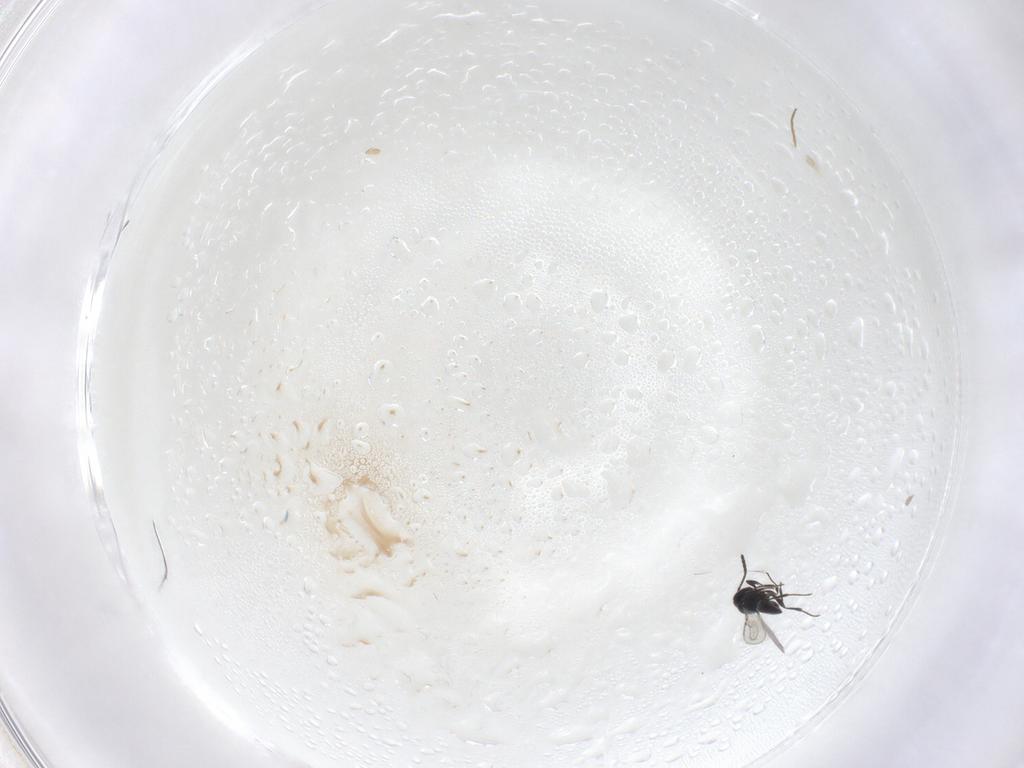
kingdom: Animalia
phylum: Arthropoda
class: Insecta
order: Hymenoptera
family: Scelionidae
